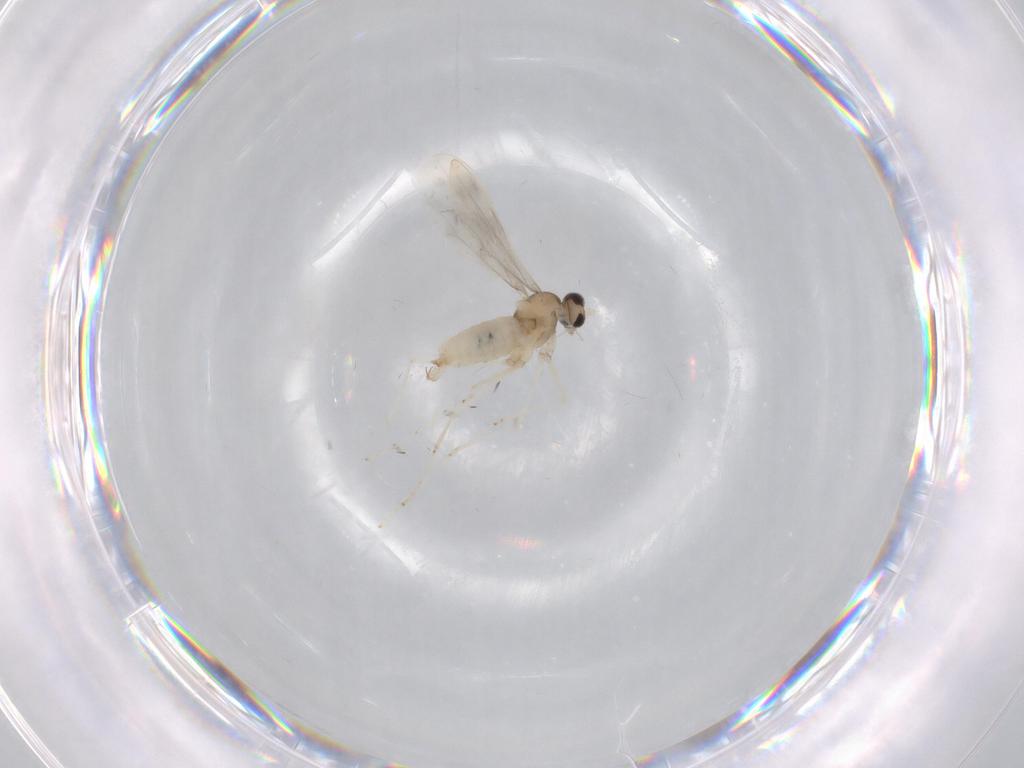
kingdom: Animalia
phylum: Arthropoda
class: Insecta
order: Diptera
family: Cecidomyiidae
